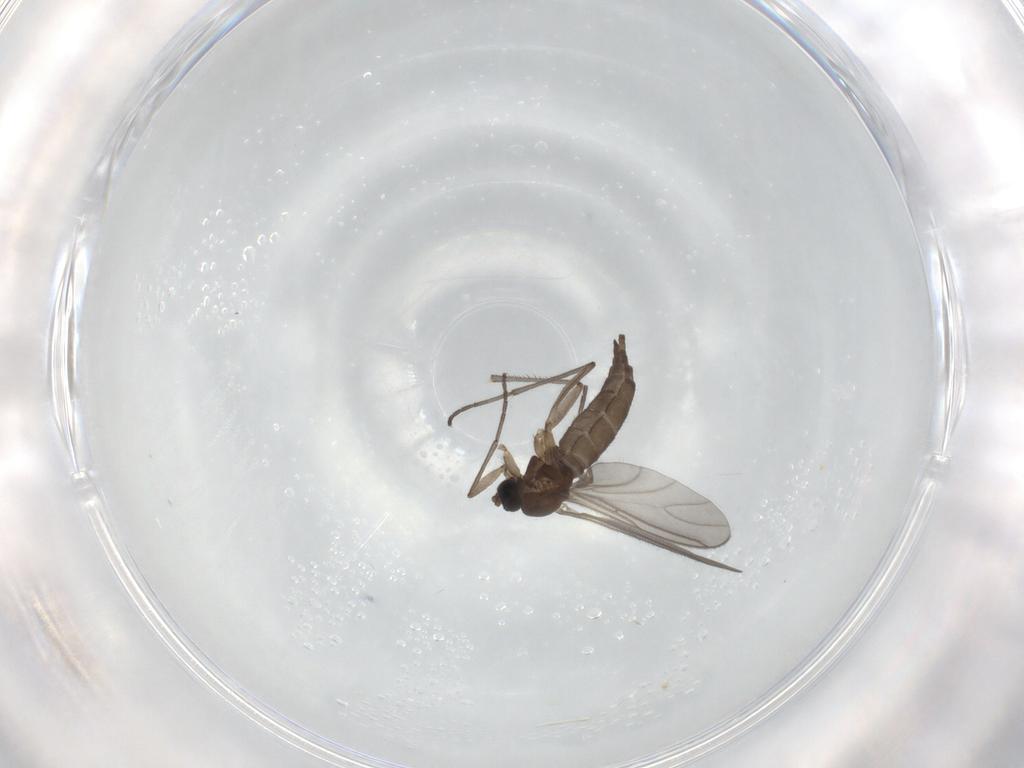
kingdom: Animalia
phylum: Arthropoda
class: Insecta
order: Diptera
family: Sciaridae
